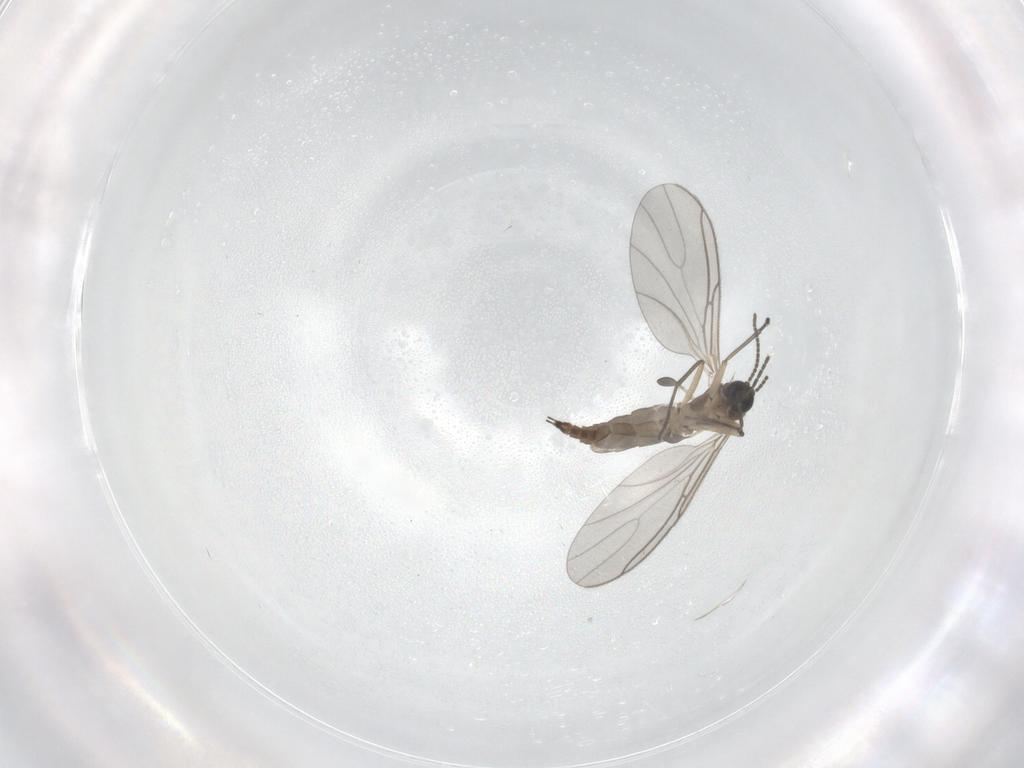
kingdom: Animalia
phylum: Arthropoda
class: Insecta
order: Diptera
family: Sciaridae
